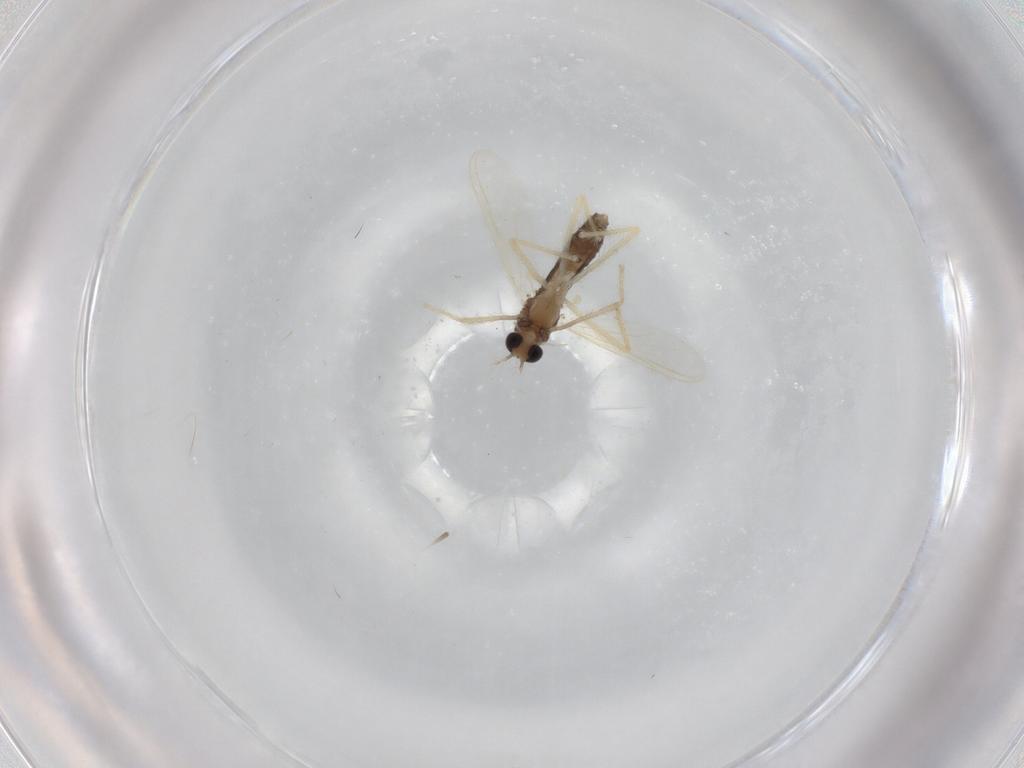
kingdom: Animalia
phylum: Arthropoda
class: Insecta
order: Diptera
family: Chironomidae
